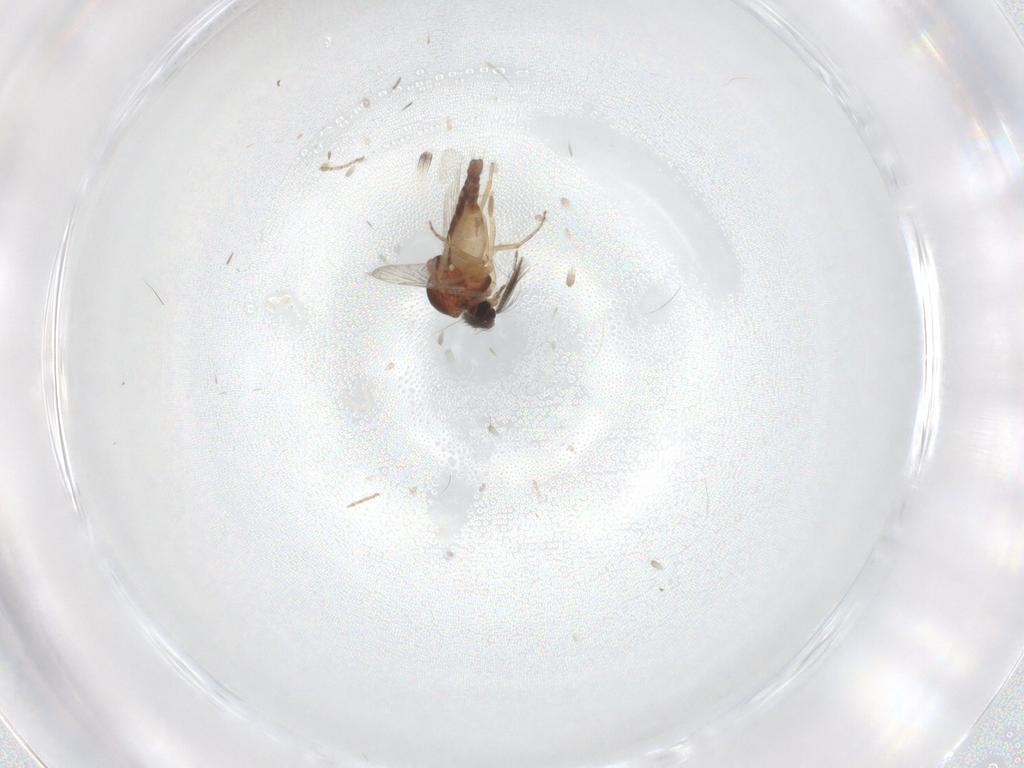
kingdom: Animalia
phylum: Arthropoda
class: Insecta
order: Diptera
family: Ceratopogonidae
